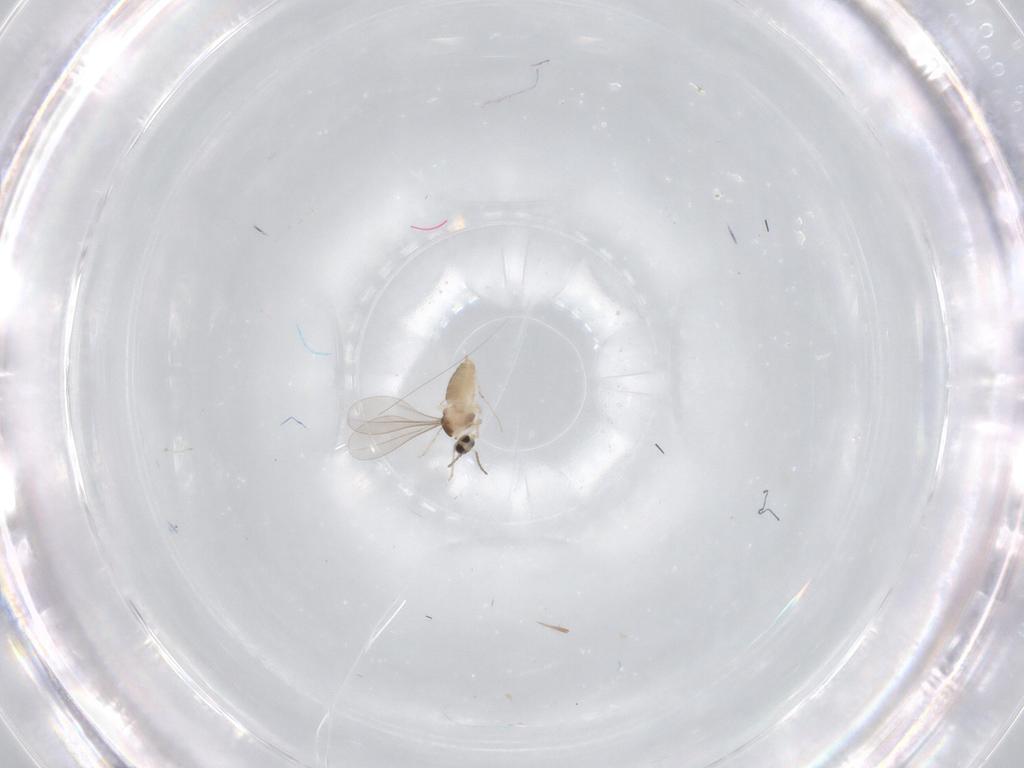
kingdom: Animalia
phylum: Arthropoda
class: Insecta
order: Diptera
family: Cecidomyiidae
